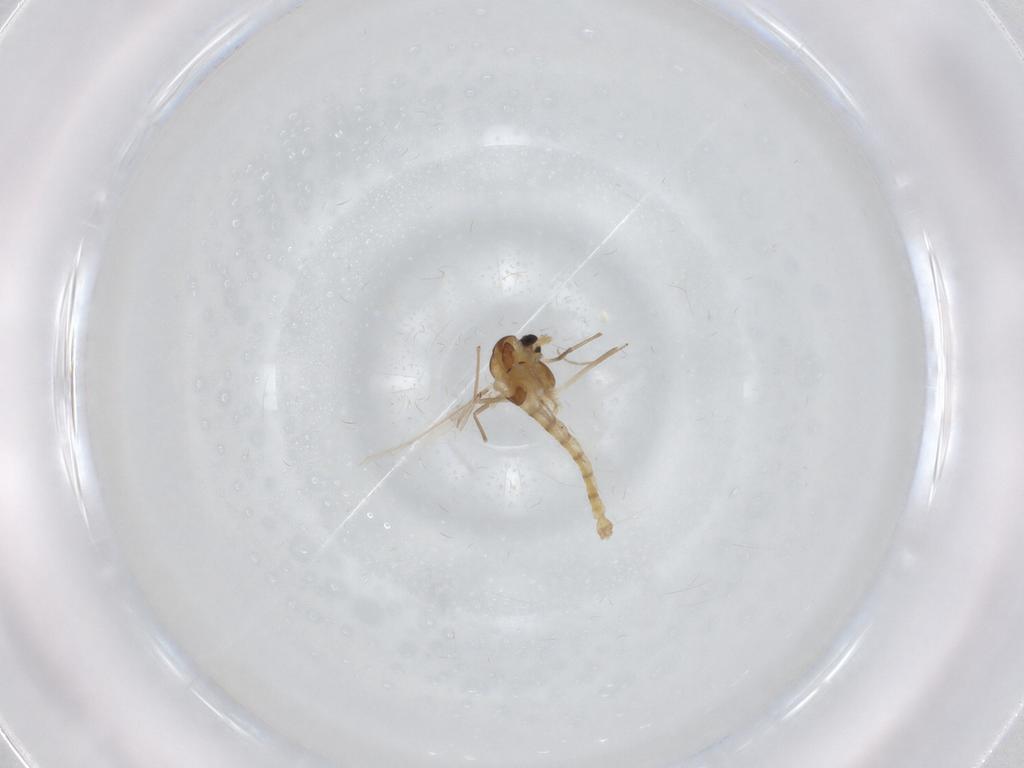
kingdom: Animalia
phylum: Arthropoda
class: Insecta
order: Diptera
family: Chironomidae
